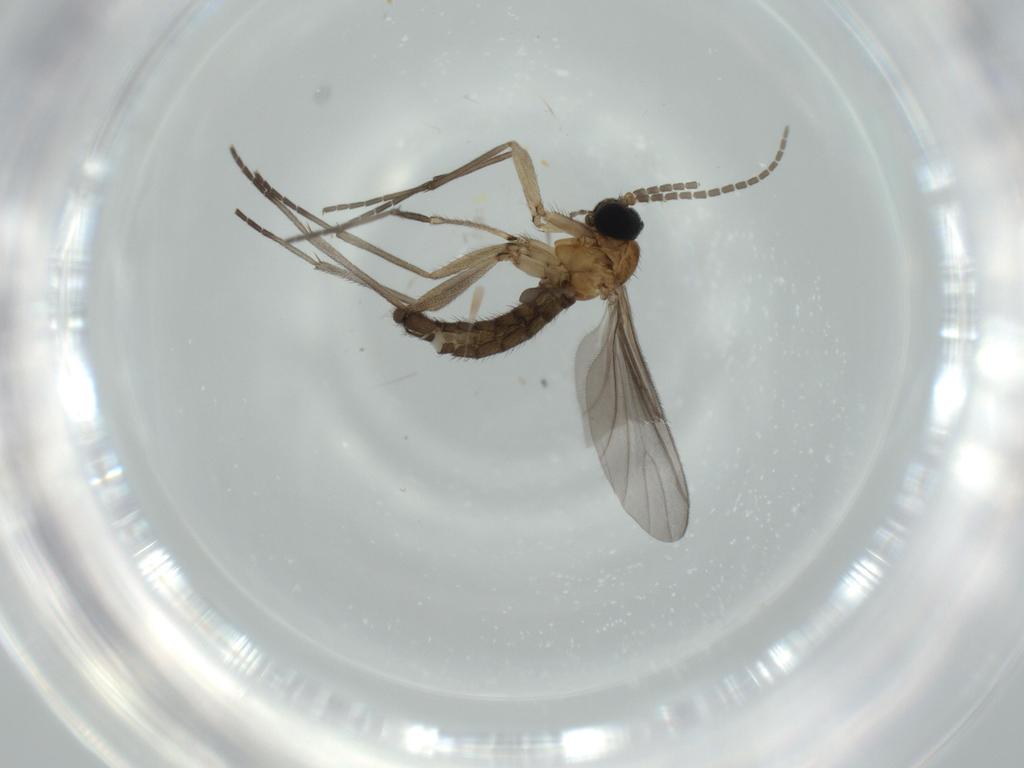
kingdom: Animalia
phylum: Arthropoda
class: Insecta
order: Diptera
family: Sciaridae
